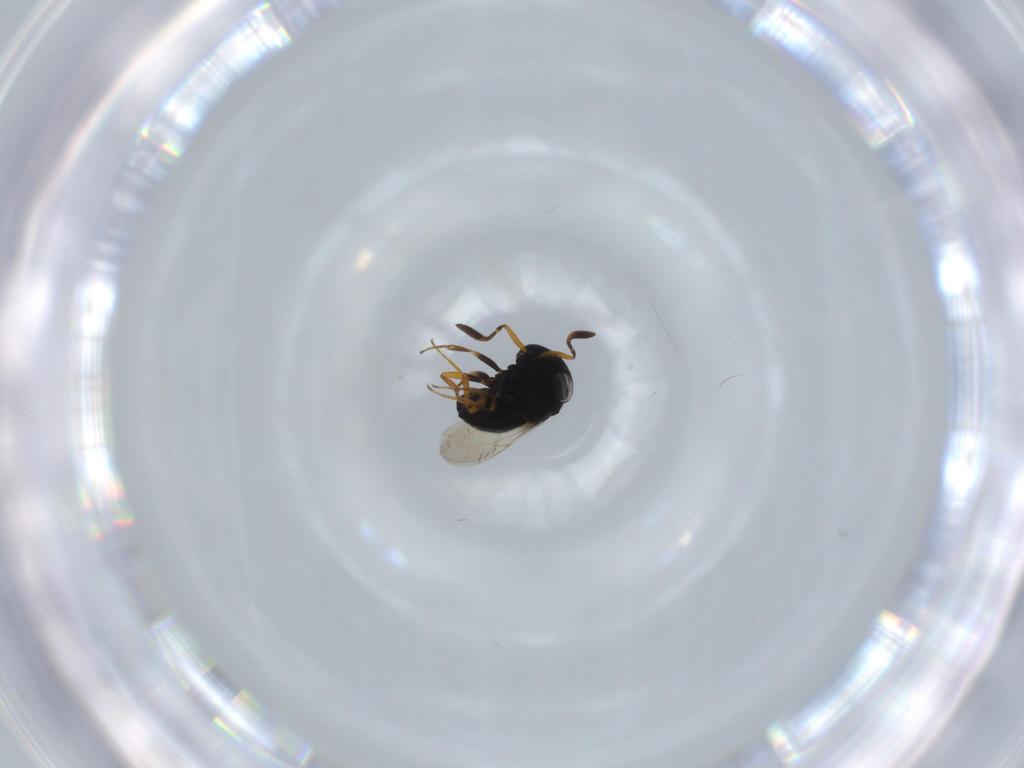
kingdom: Animalia
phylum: Arthropoda
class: Insecta
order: Hymenoptera
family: Scelionidae
